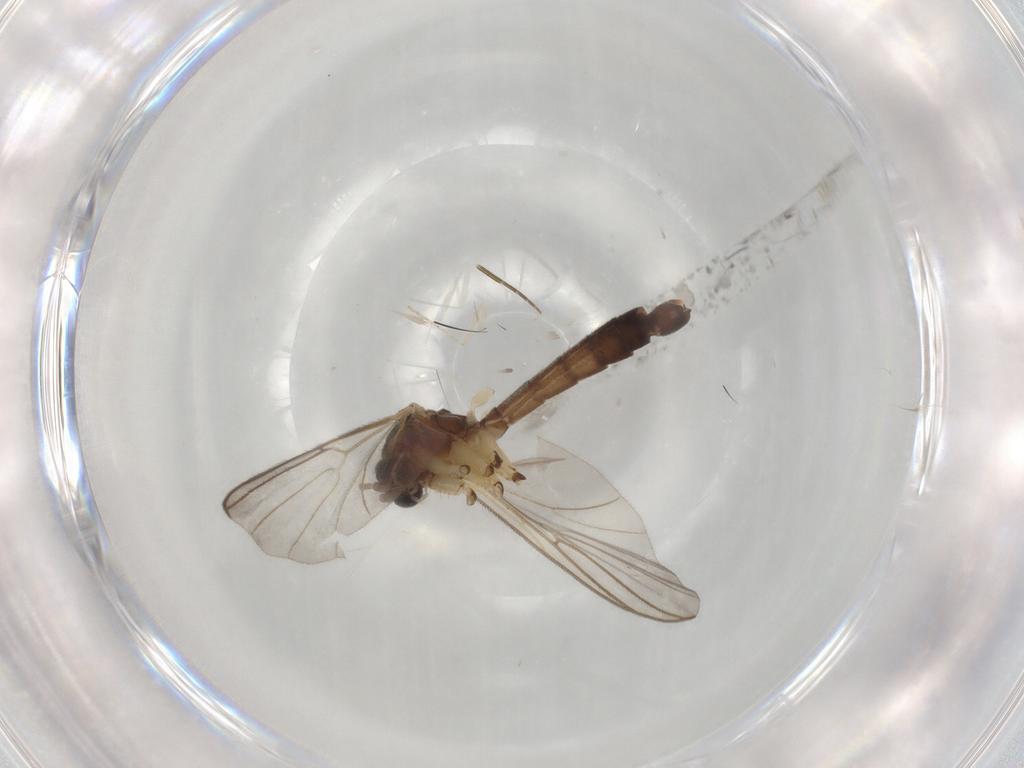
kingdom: Animalia
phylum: Arthropoda
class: Insecta
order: Diptera
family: Mycetophilidae
